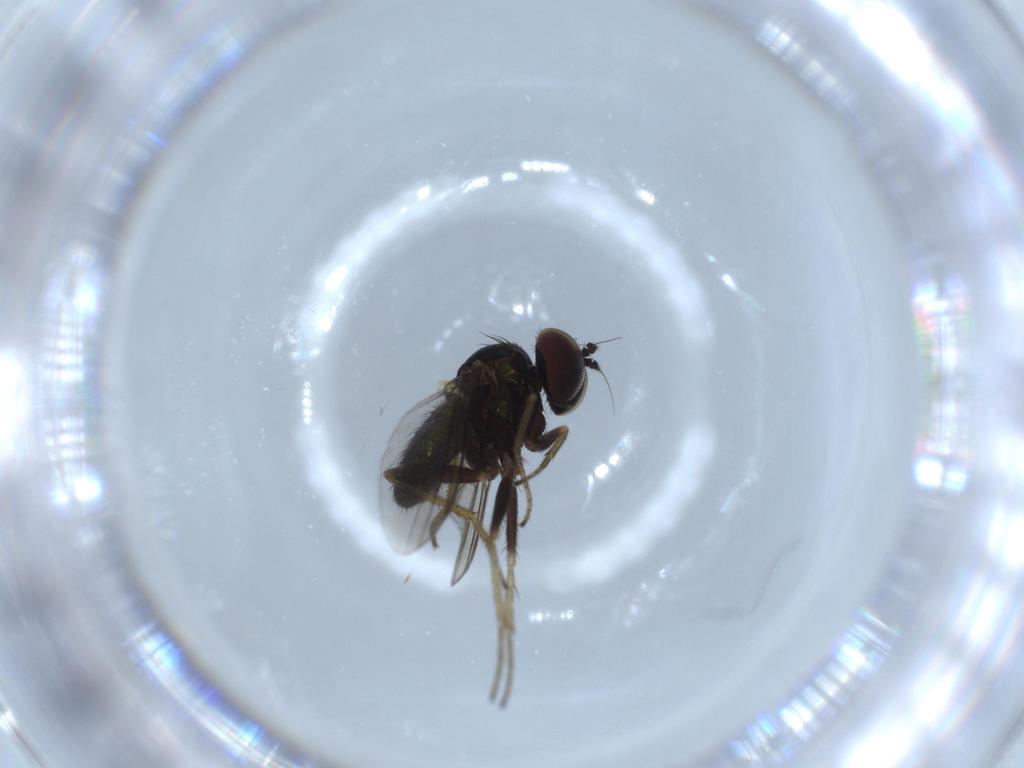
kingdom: Animalia
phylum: Arthropoda
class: Insecta
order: Diptera
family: Dolichopodidae
